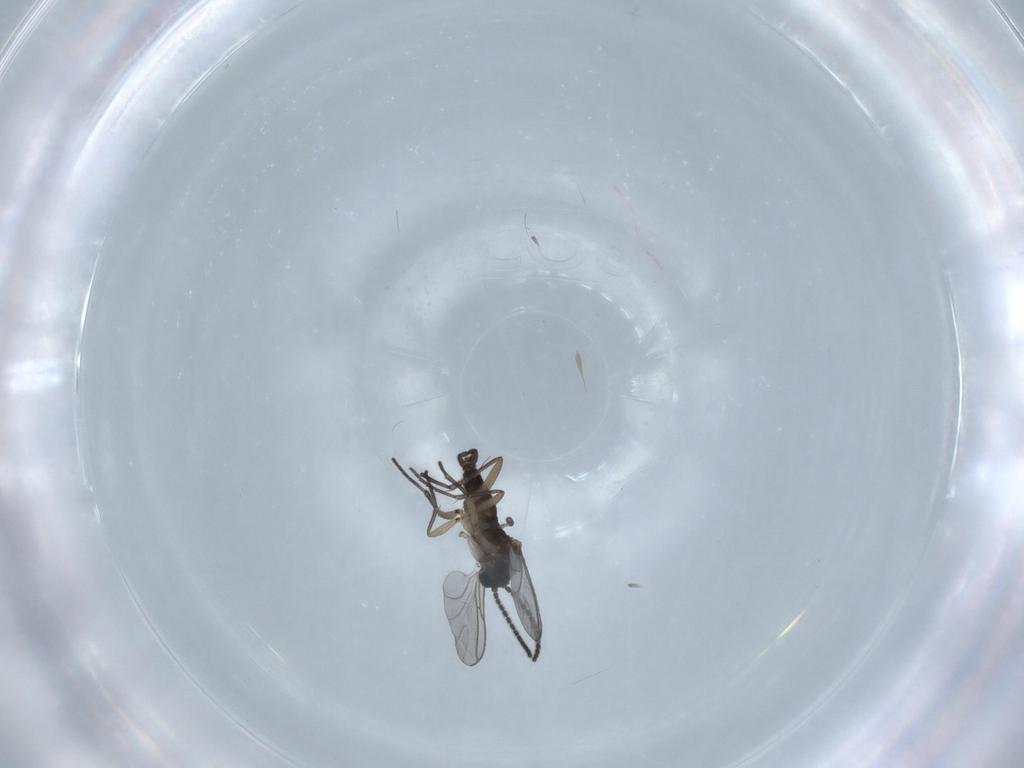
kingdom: Animalia
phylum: Arthropoda
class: Insecta
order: Diptera
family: Sciaridae
